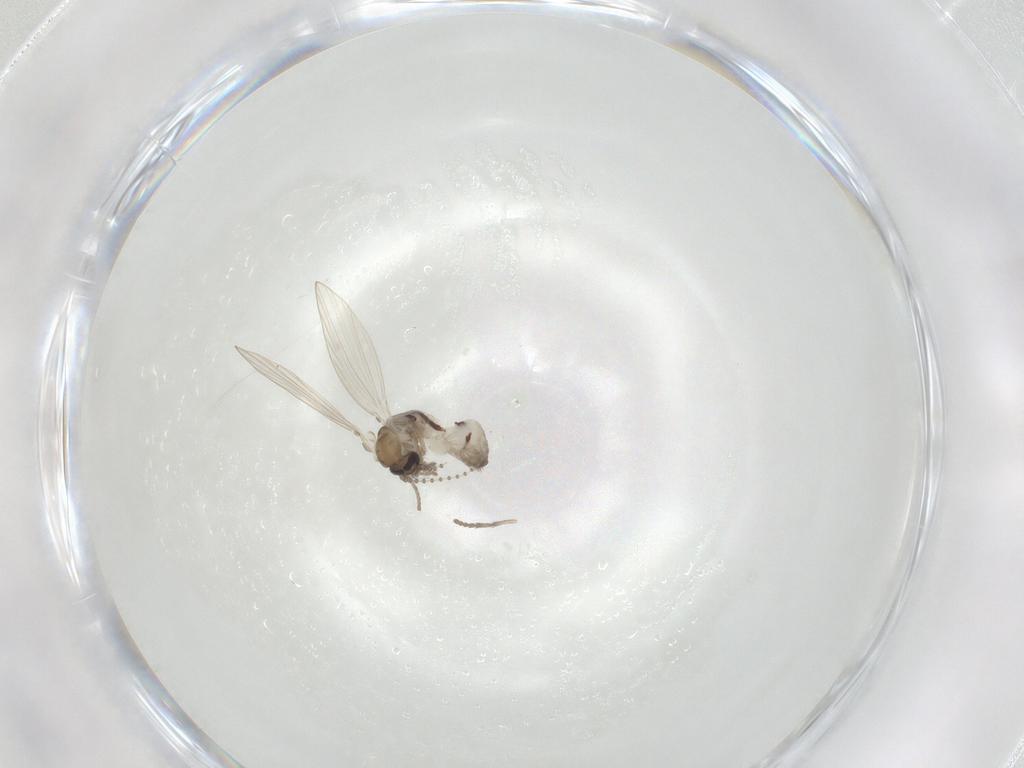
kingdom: Animalia
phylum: Arthropoda
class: Insecta
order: Diptera
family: Psychodidae
